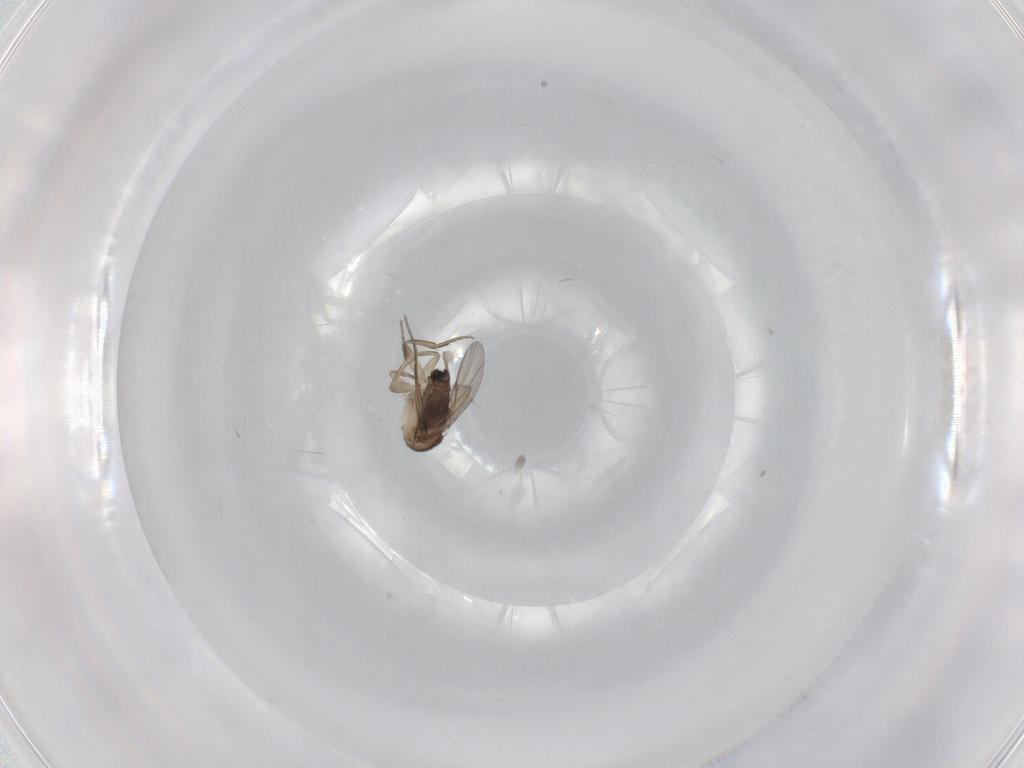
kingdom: Animalia
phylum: Arthropoda
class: Insecta
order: Diptera
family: Phoridae
